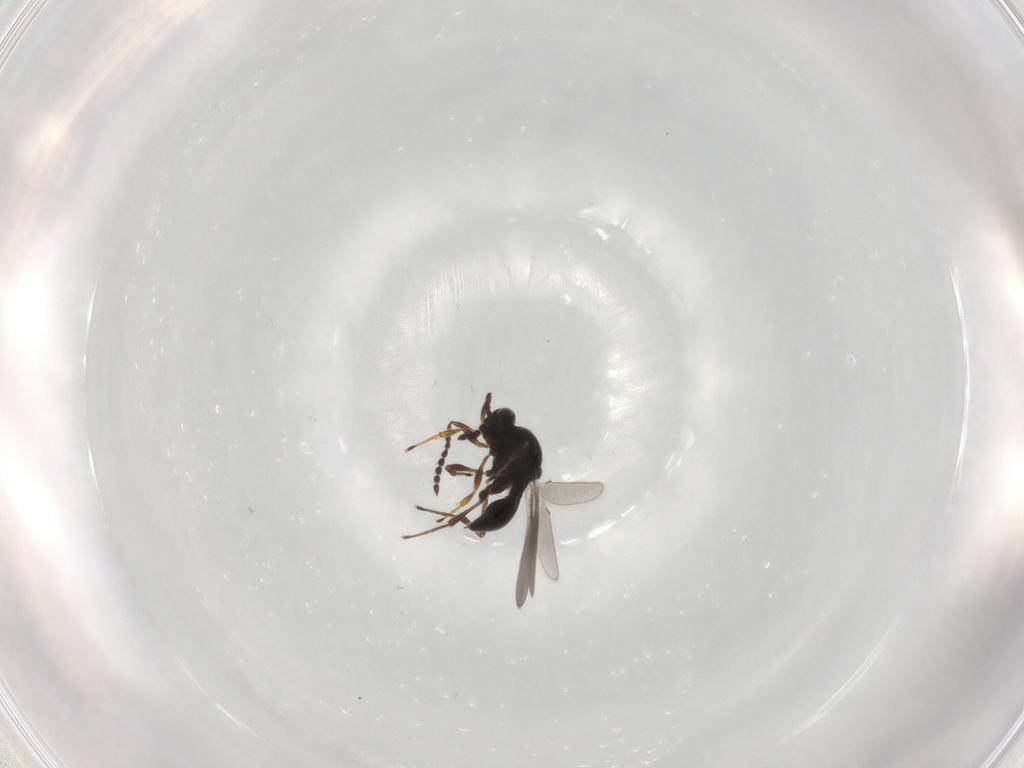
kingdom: Animalia
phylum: Arthropoda
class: Insecta
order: Hymenoptera
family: Platygastridae
